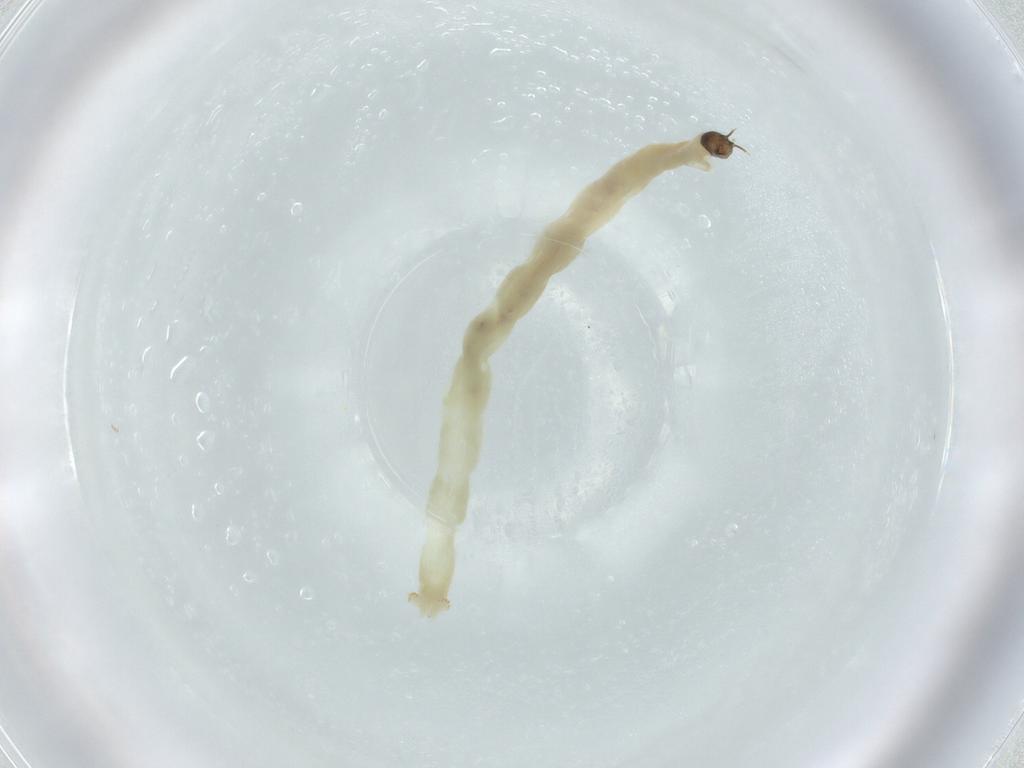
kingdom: Animalia
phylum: Arthropoda
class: Insecta
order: Diptera
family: Chironomidae
